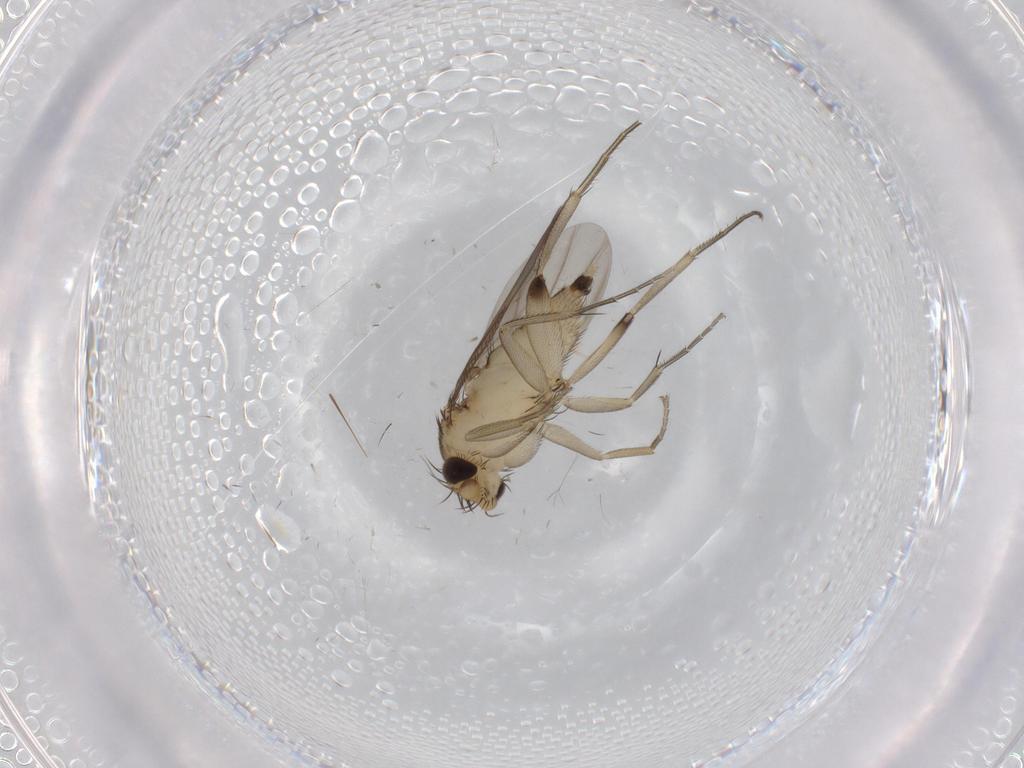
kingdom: Animalia
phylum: Arthropoda
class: Insecta
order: Diptera
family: Phoridae
